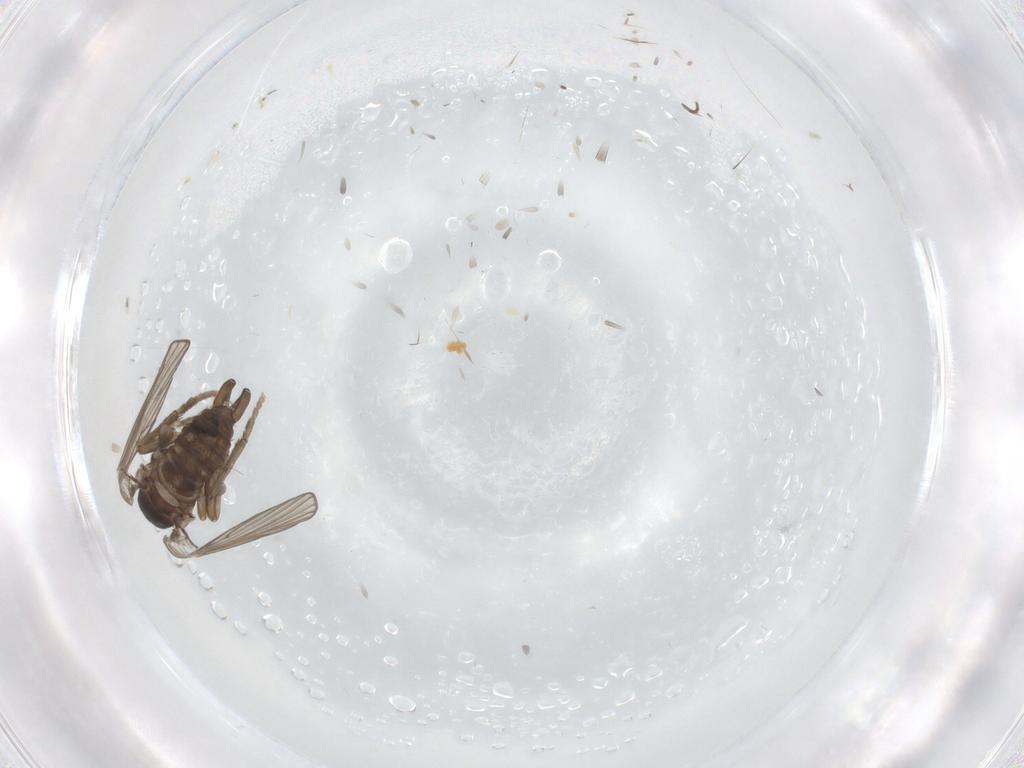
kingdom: Animalia
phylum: Arthropoda
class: Insecta
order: Diptera
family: Psychodidae
